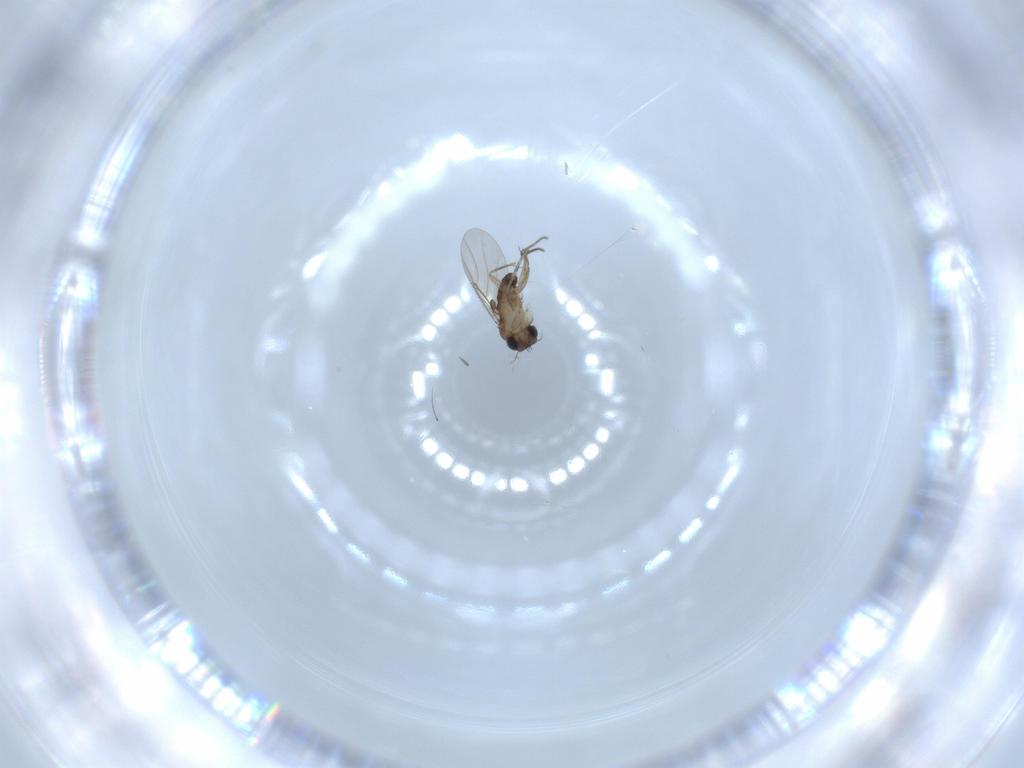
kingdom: Animalia
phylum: Arthropoda
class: Insecta
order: Diptera
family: Phoridae
